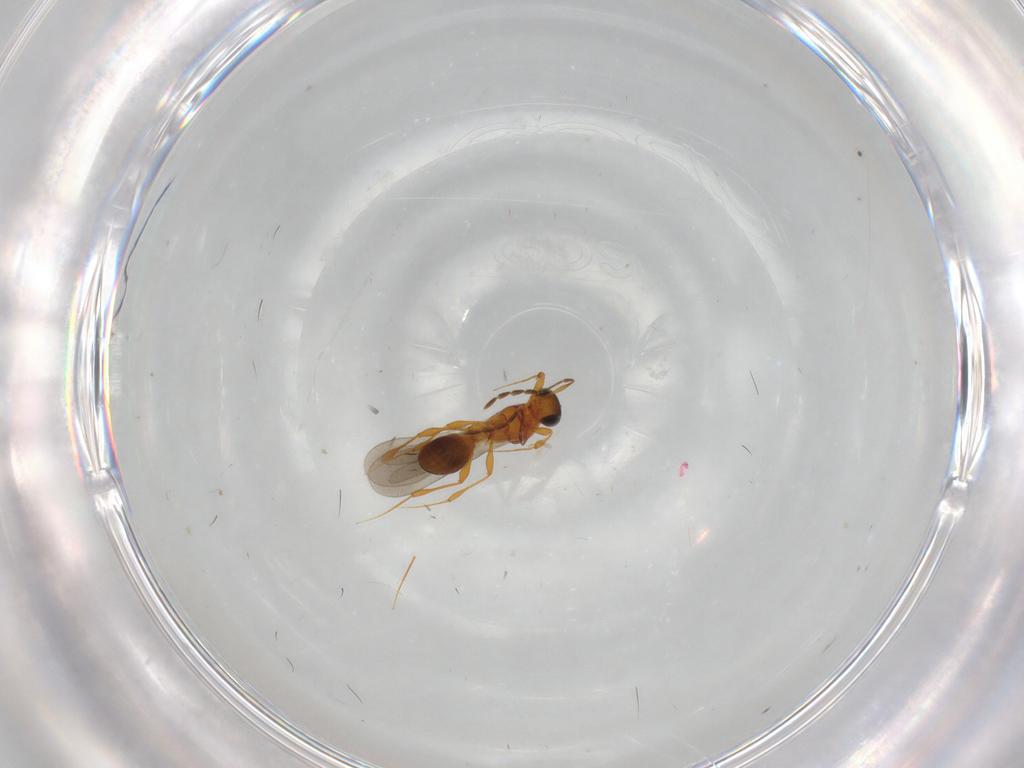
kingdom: Animalia
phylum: Arthropoda
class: Insecta
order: Hymenoptera
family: Platygastridae
